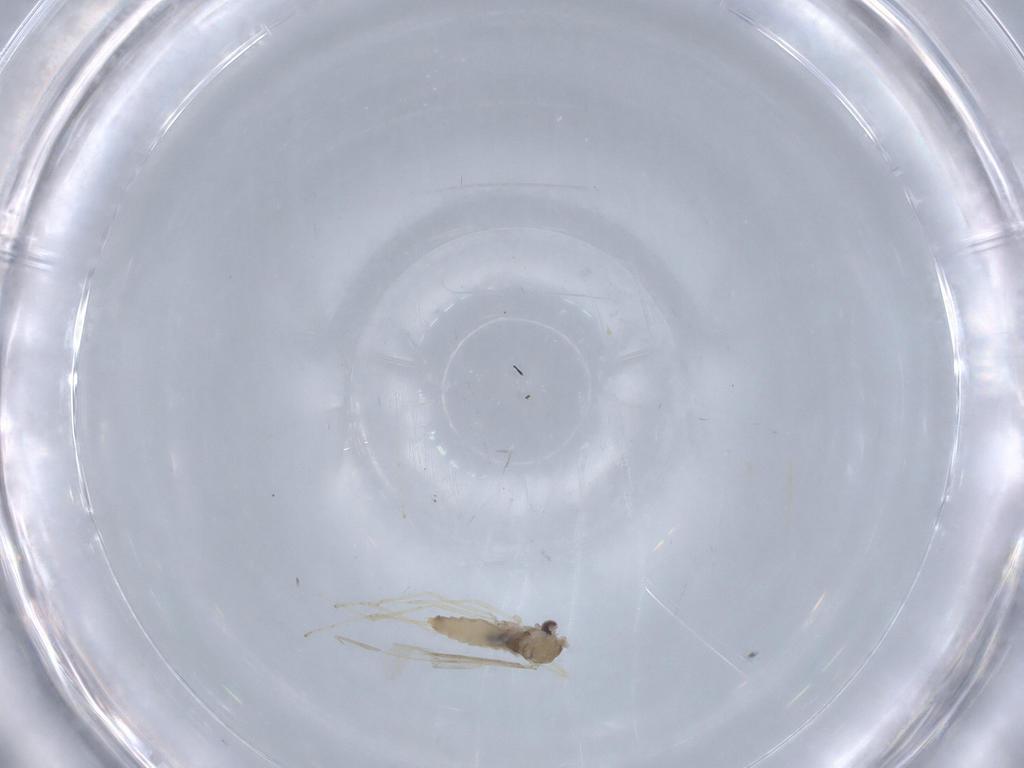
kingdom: Animalia
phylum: Arthropoda
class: Insecta
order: Diptera
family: Cecidomyiidae
